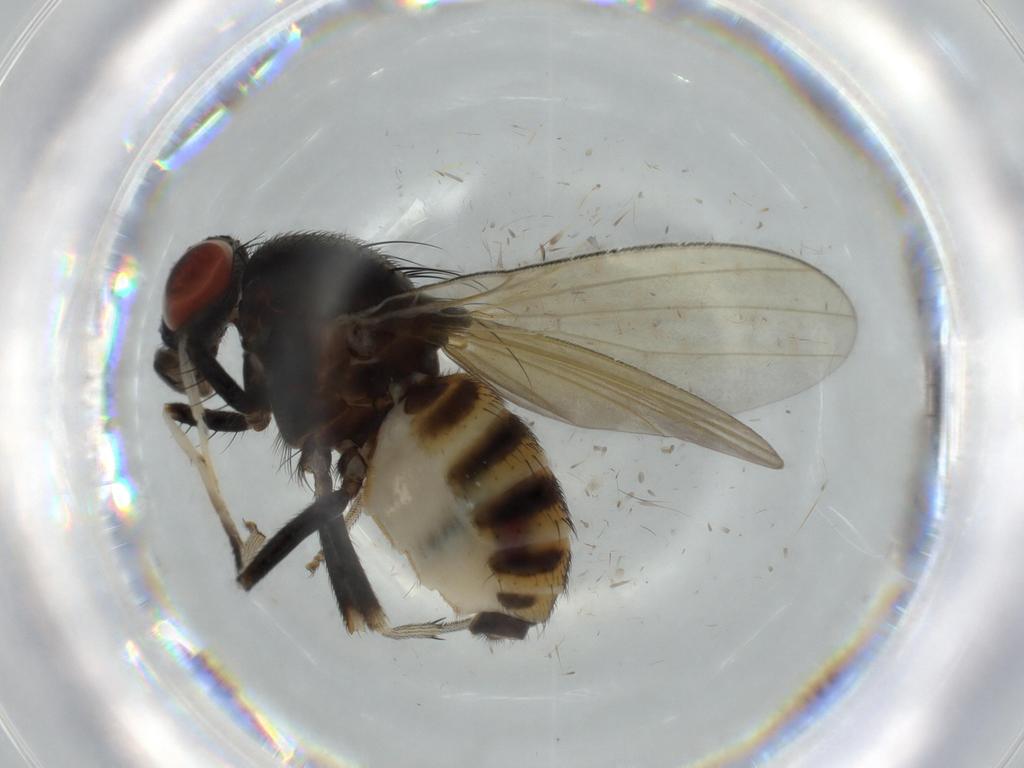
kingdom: Animalia
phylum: Arthropoda
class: Insecta
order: Diptera
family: Cecidomyiidae
